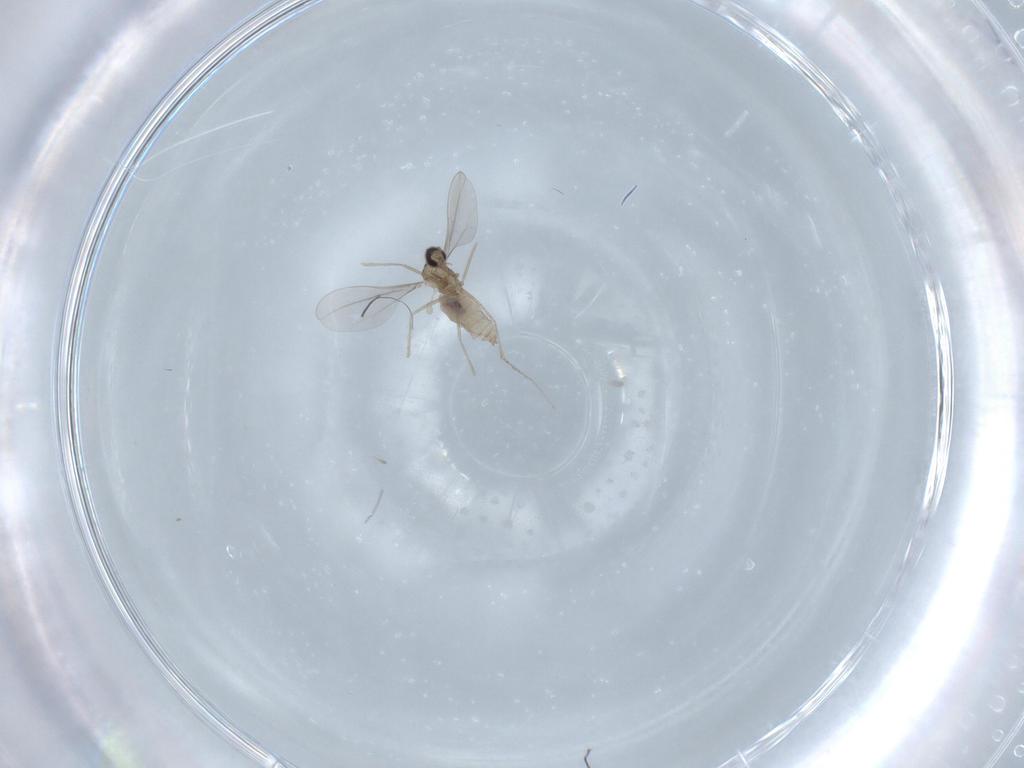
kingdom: Animalia
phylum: Arthropoda
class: Insecta
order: Diptera
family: Cecidomyiidae
